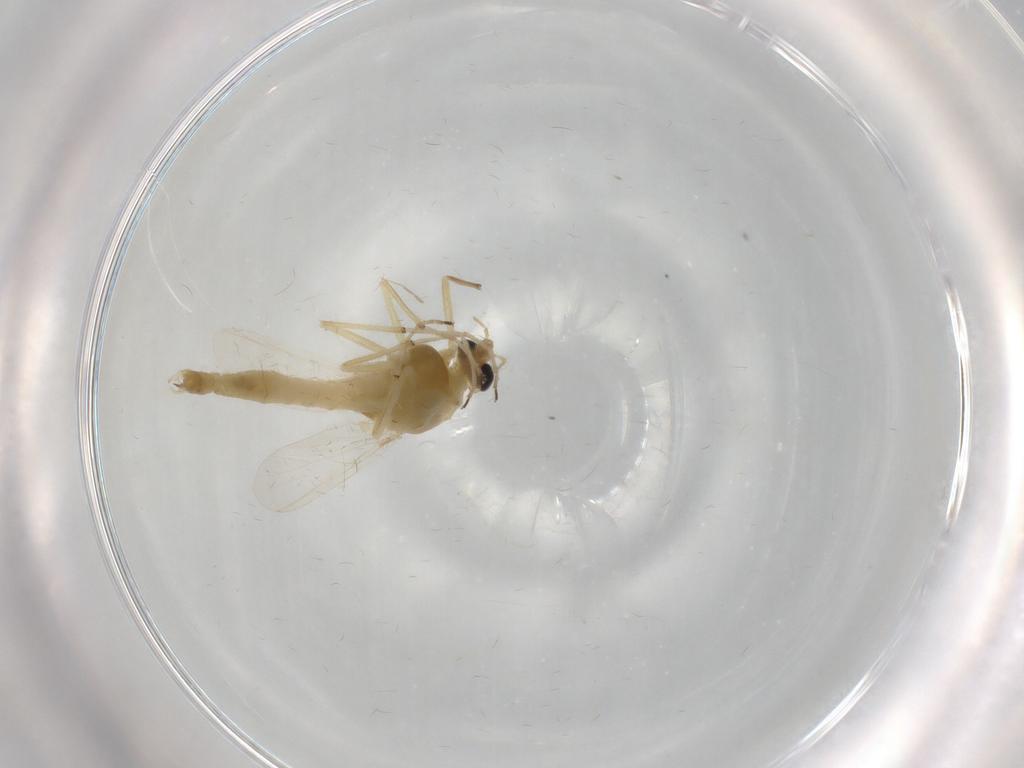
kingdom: Animalia
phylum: Arthropoda
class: Insecta
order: Diptera
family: Chironomidae
